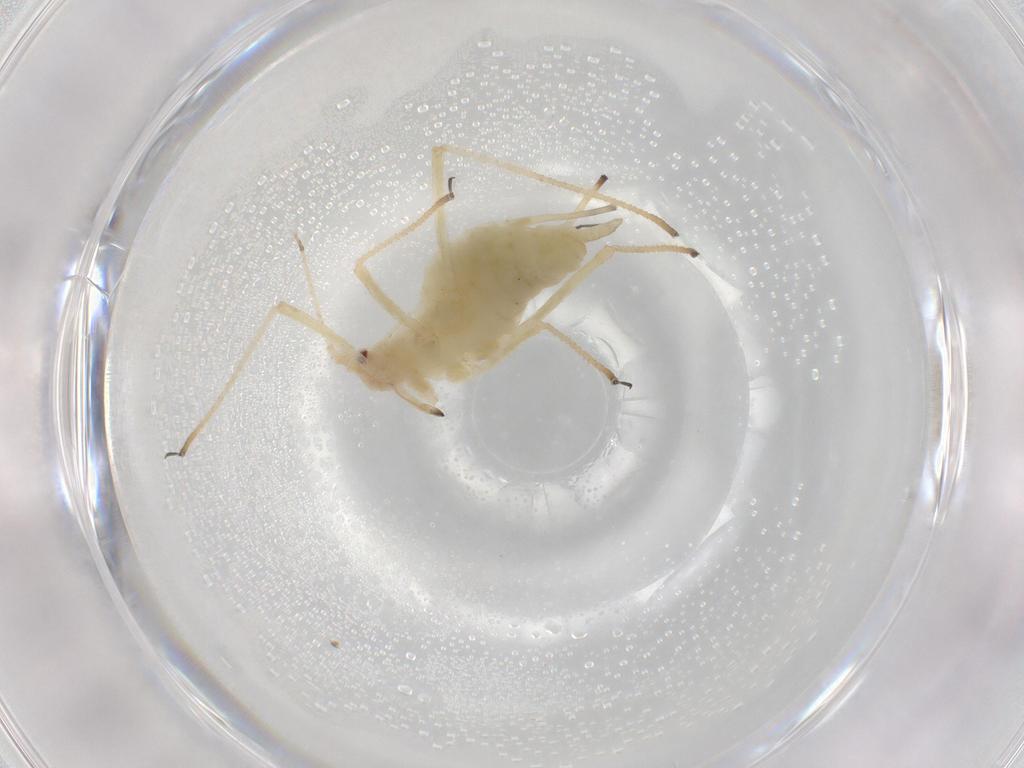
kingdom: Animalia
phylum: Arthropoda
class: Insecta
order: Hemiptera
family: Aphididae
